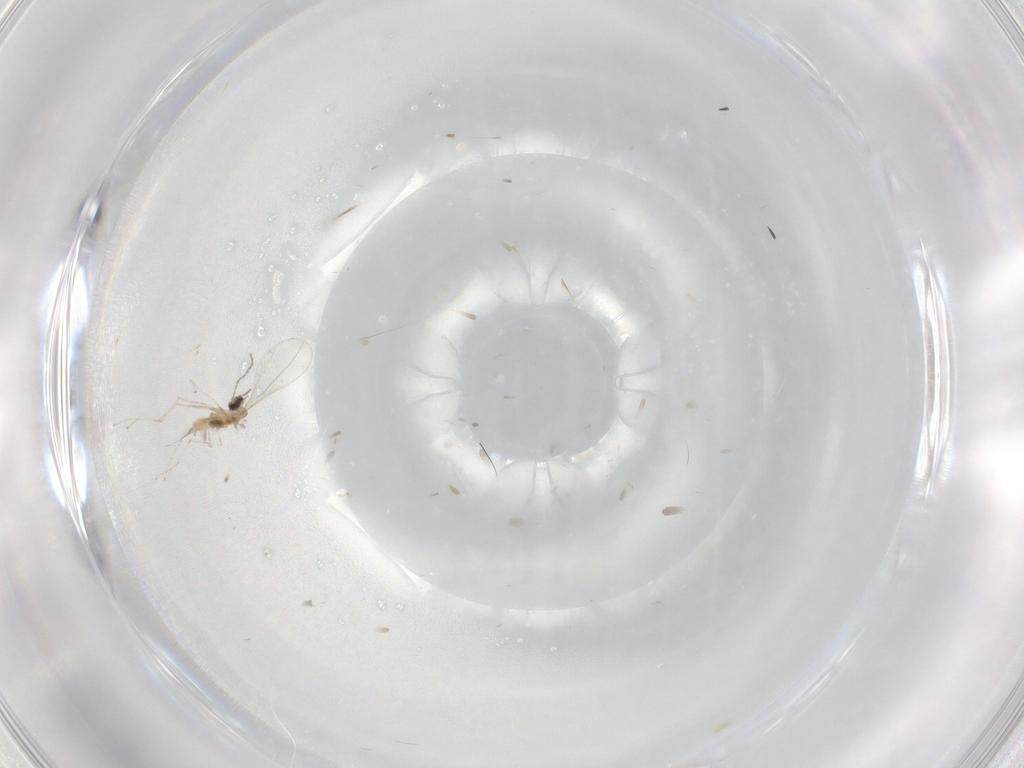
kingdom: Animalia
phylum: Arthropoda
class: Insecta
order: Diptera
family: Cecidomyiidae
